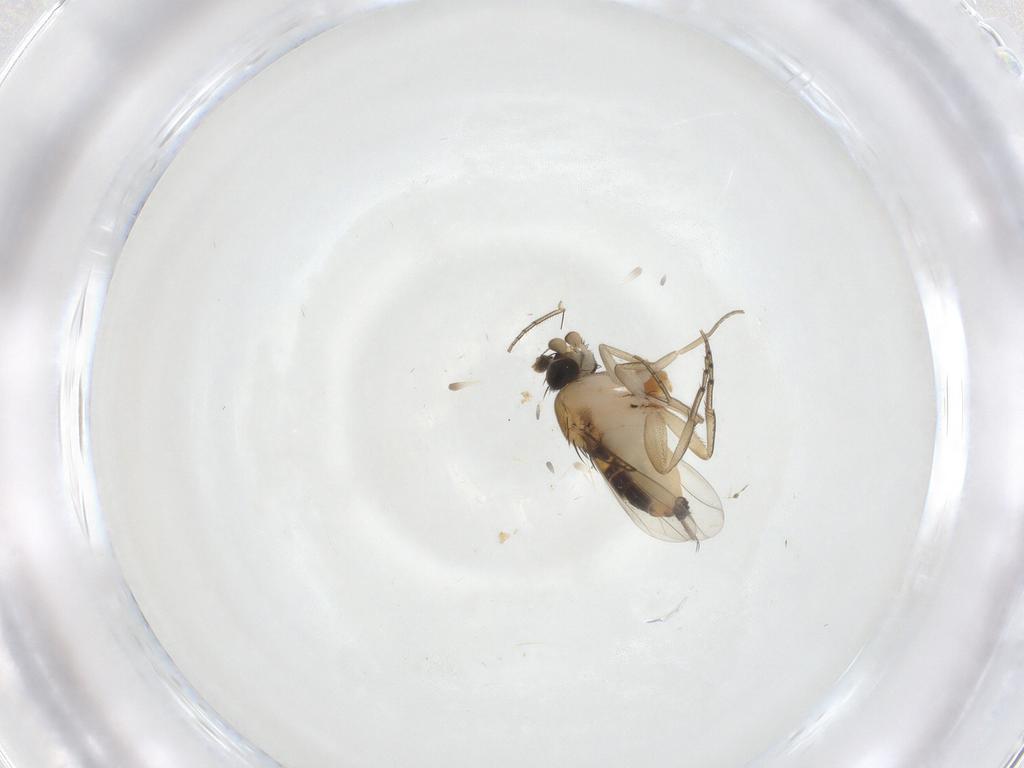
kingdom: Animalia
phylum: Arthropoda
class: Insecta
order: Diptera
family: Phoridae
